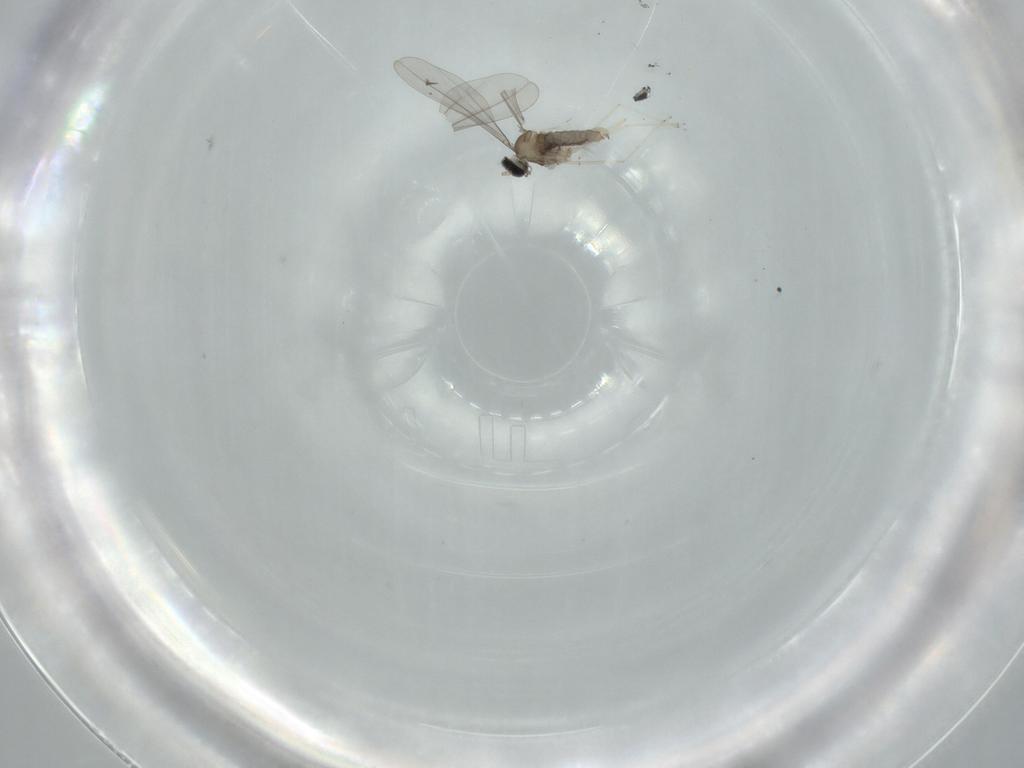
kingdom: Animalia
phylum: Arthropoda
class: Insecta
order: Diptera
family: Cecidomyiidae
